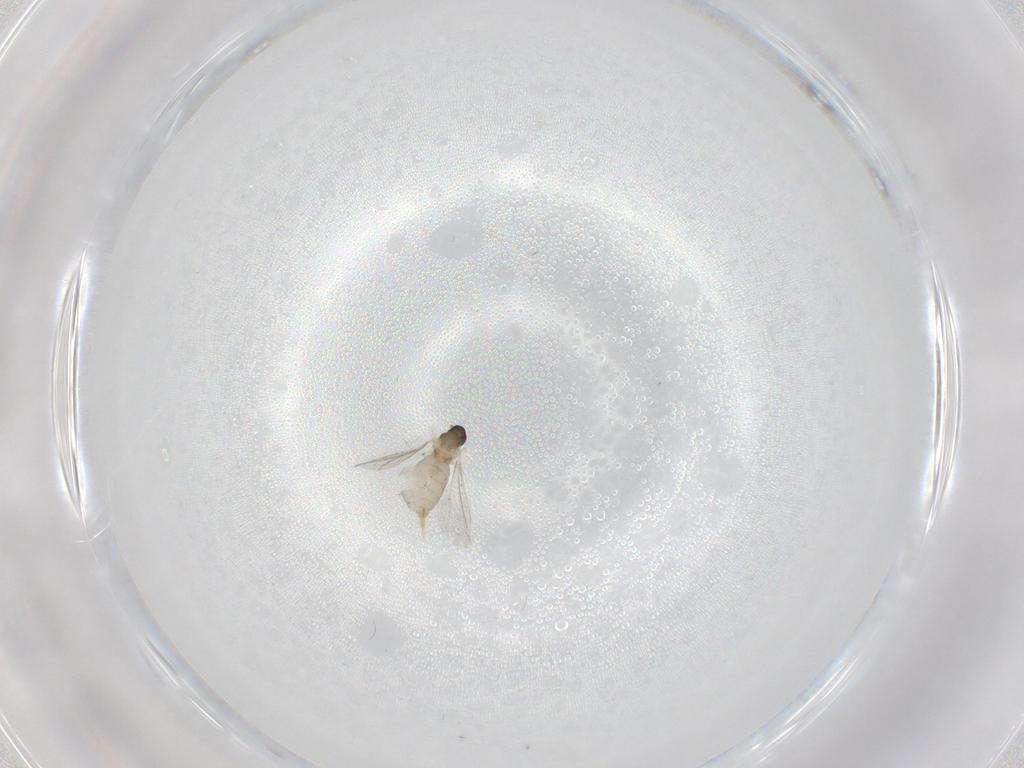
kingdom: Animalia
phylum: Arthropoda
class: Insecta
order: Diptera
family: Cecidomyiidae
